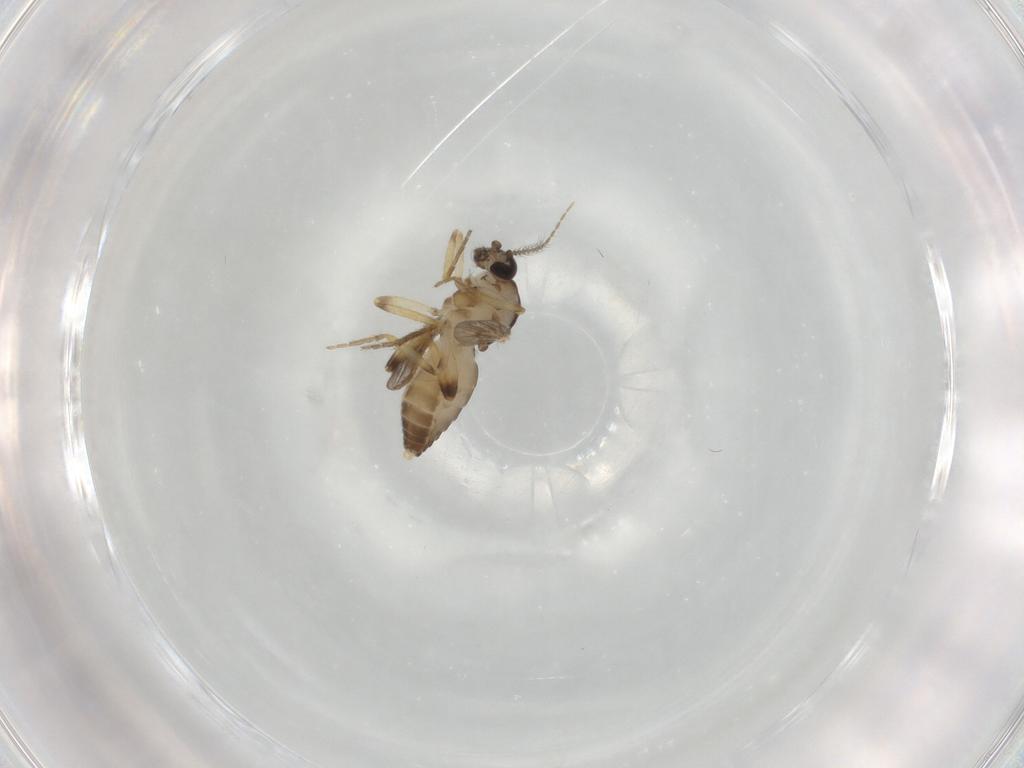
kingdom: Animalia
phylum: Arthropoda
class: Insecta
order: Diptera
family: Ceratopogonidae
